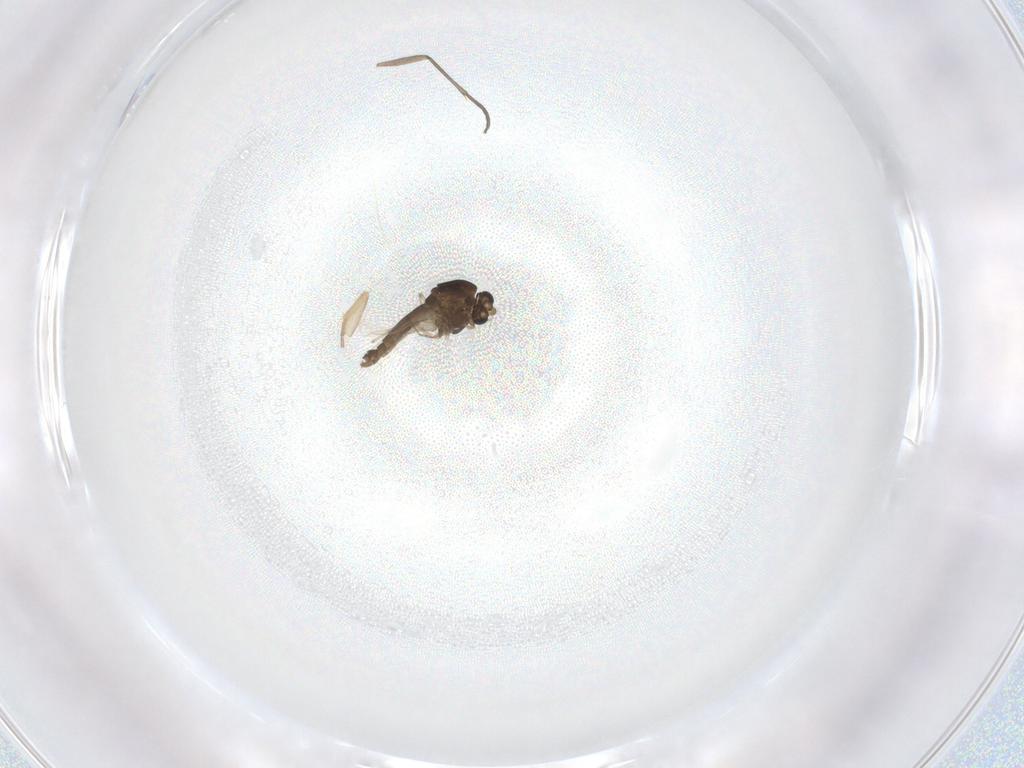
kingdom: Animalia
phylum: Arthropoda
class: Insecta
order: Diptera
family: Sciaridae
